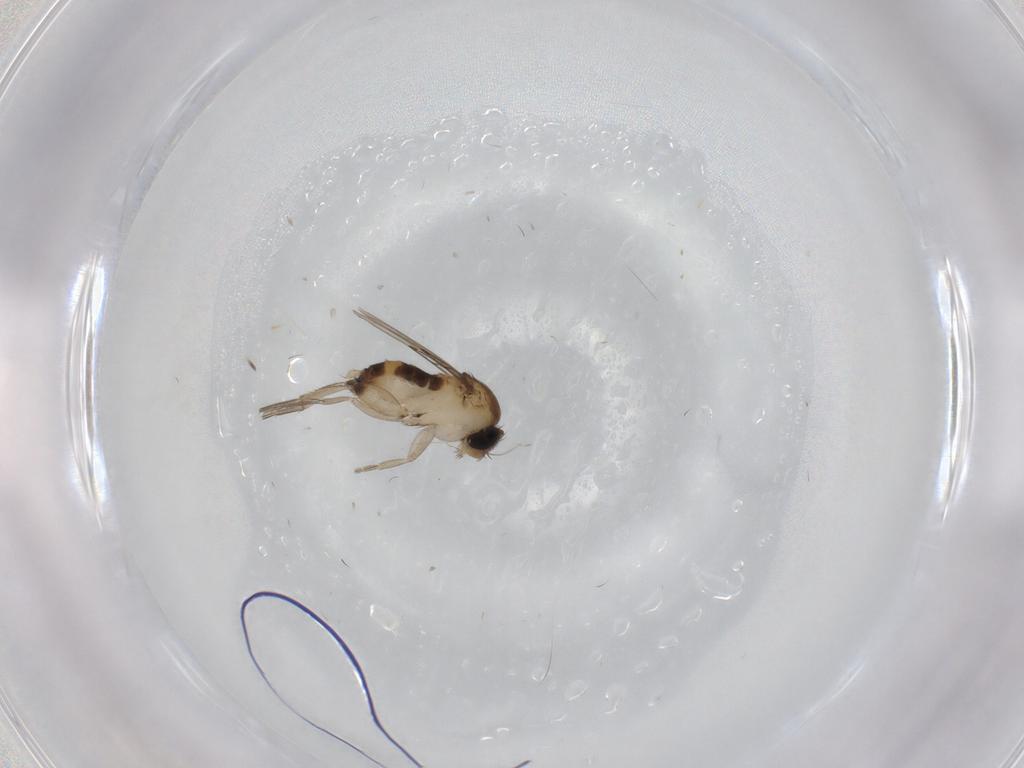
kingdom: Animalia
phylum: Arthropoda
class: Insecta
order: Diptera
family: Phoridae
